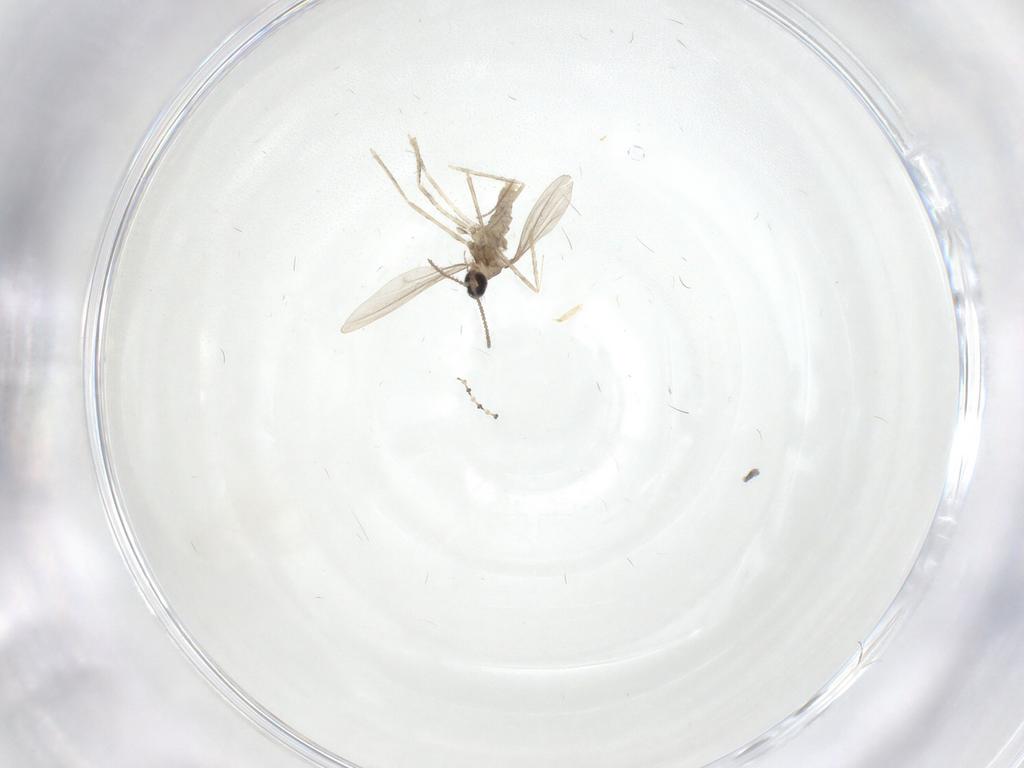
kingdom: Animalia
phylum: Arthropoda
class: Insecta
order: Diptera
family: Cecidomyiidae
